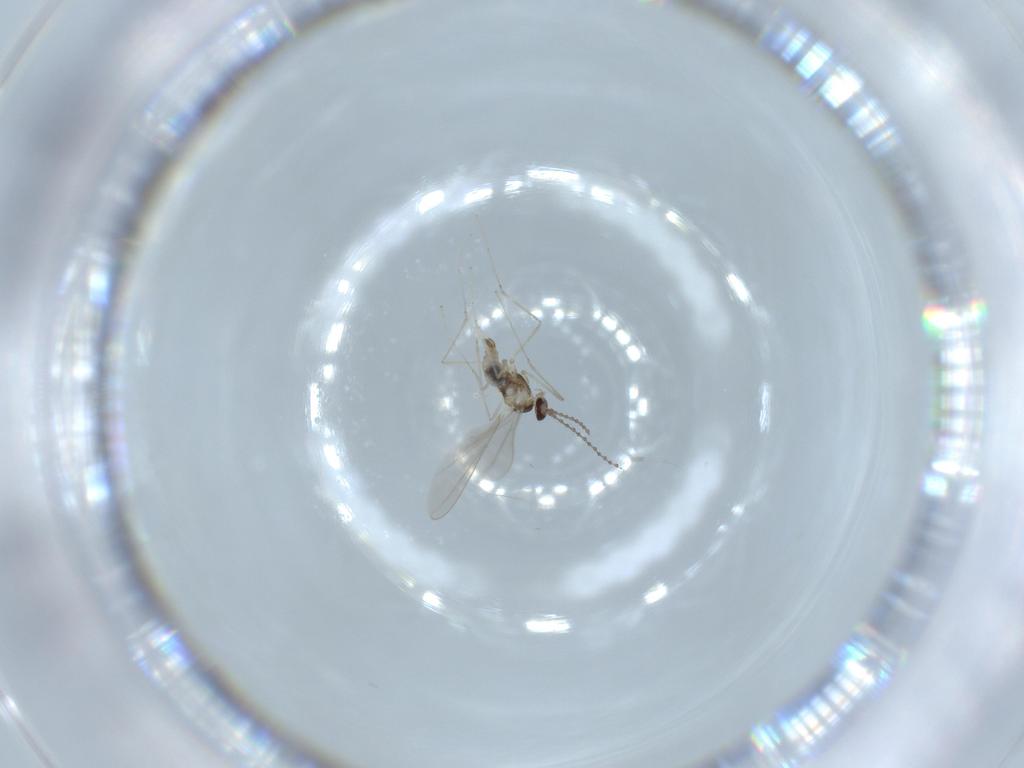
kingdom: Animalia
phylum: Arthropoda
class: Insecta
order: Diptera
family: Cecidomyiidae
